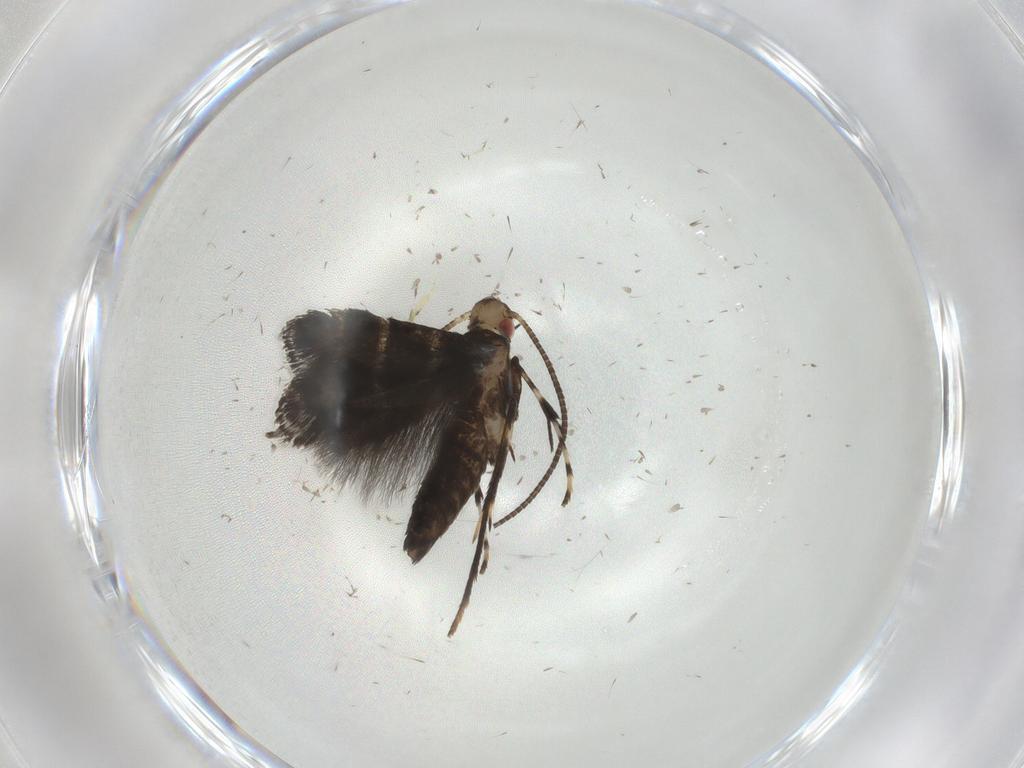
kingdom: Animalia
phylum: Arthropoda
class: Insecta
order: Lepidoptera
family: Gracillariidae
